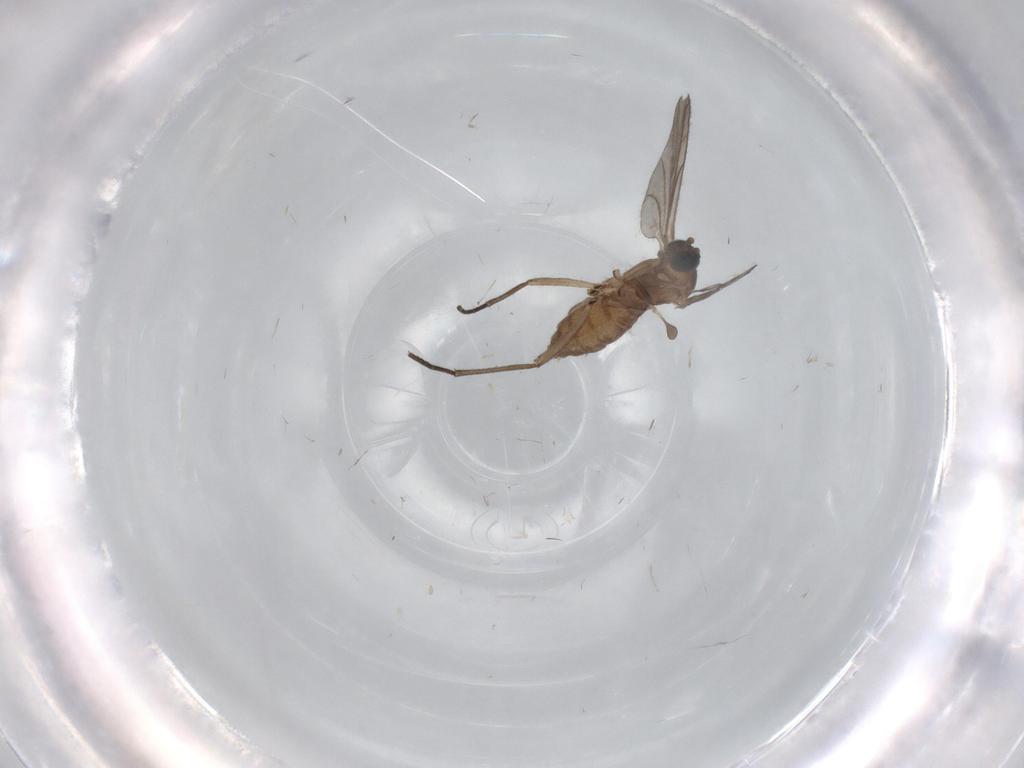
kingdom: Animalia
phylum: Arthropoda
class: Insecta
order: Diptera
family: Sciaridae
